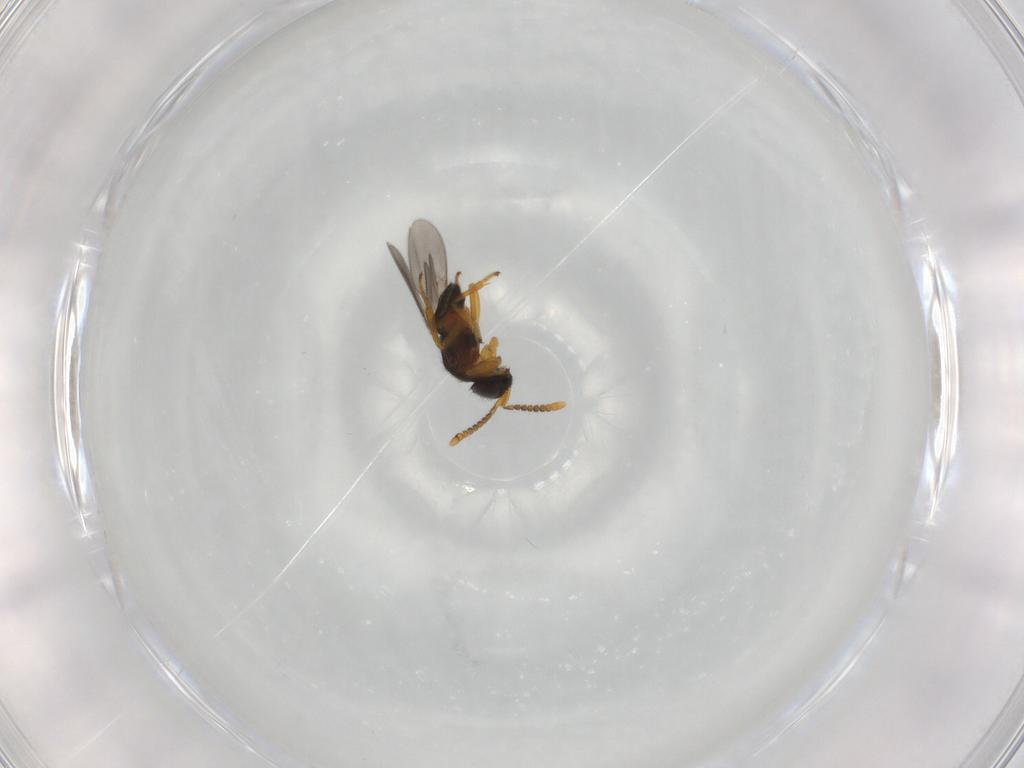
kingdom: Animalia
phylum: Arthropoda
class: Insecta
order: Hymenoptera
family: Encyrtidae
